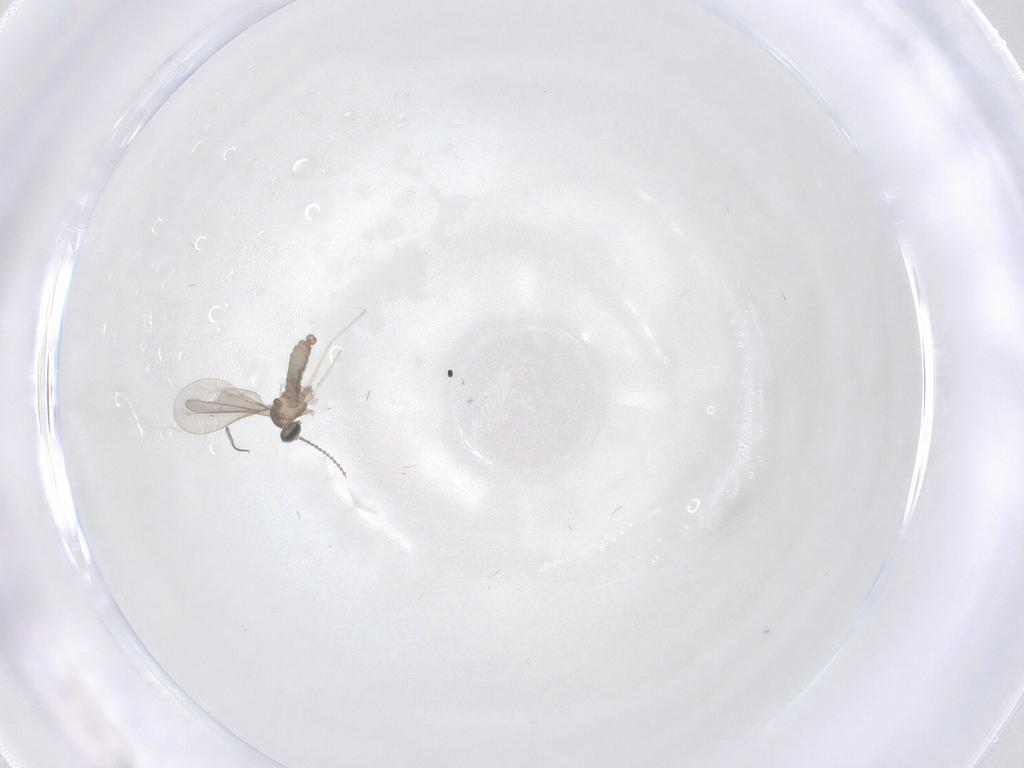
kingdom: Animalia
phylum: Arthropoda
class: Insecta
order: Diptera
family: Cecidomyiidae
